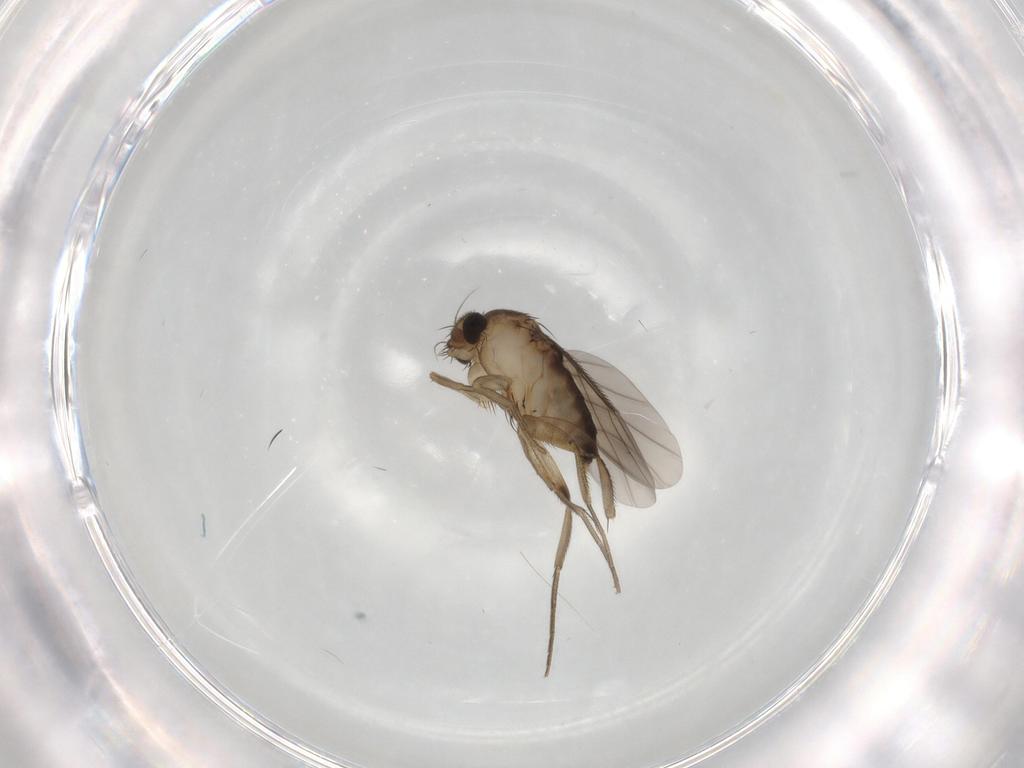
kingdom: Animalia
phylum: Arthropoda
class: Insecta
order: Diptera
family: Phoridae
